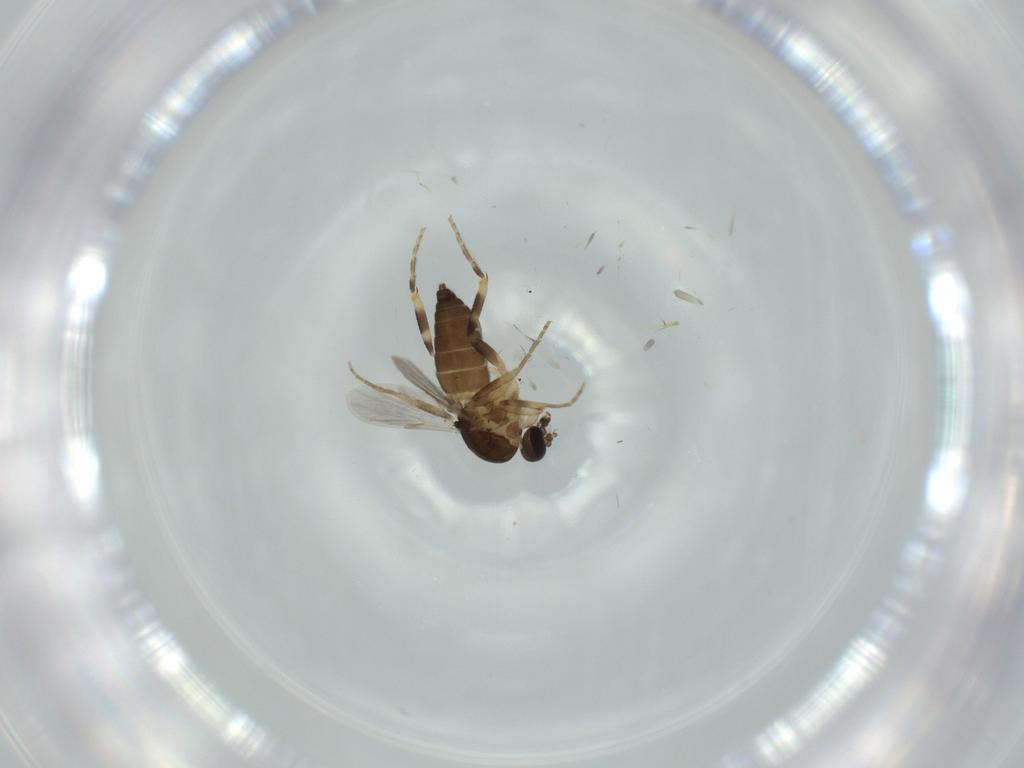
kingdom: Animalia
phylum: Arthropoda
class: Insecta
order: Diptera
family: Ceratopogonidae
